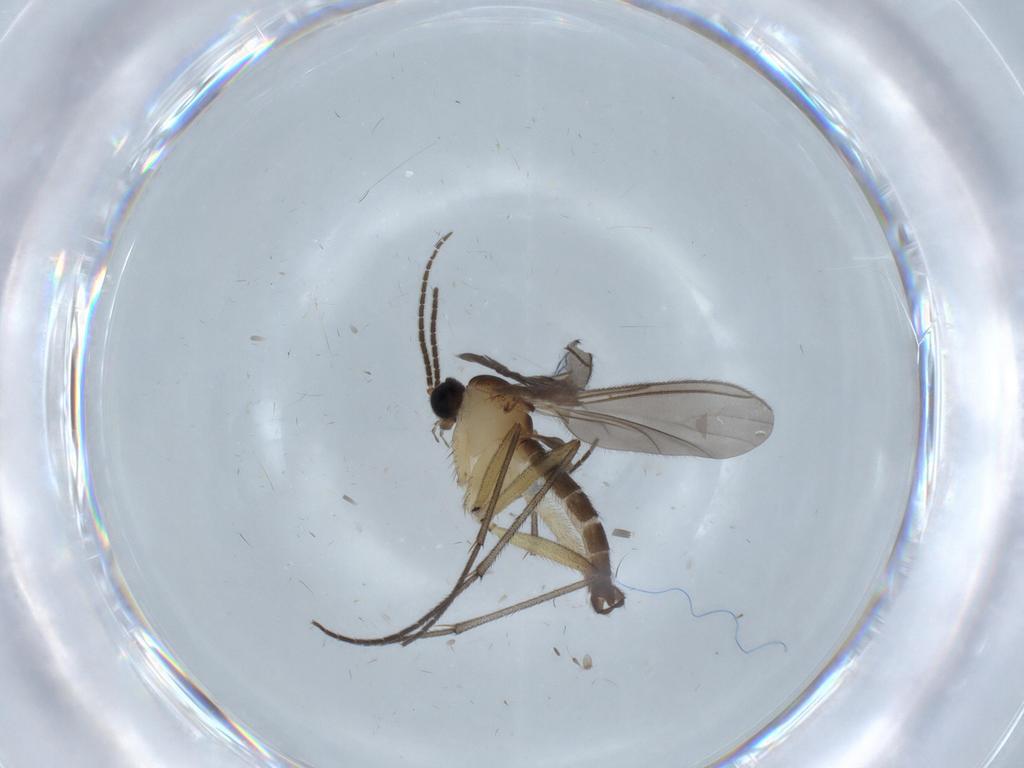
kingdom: Animalia
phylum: Arthropoda
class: Insecta
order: Diptera
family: Sciaridae
